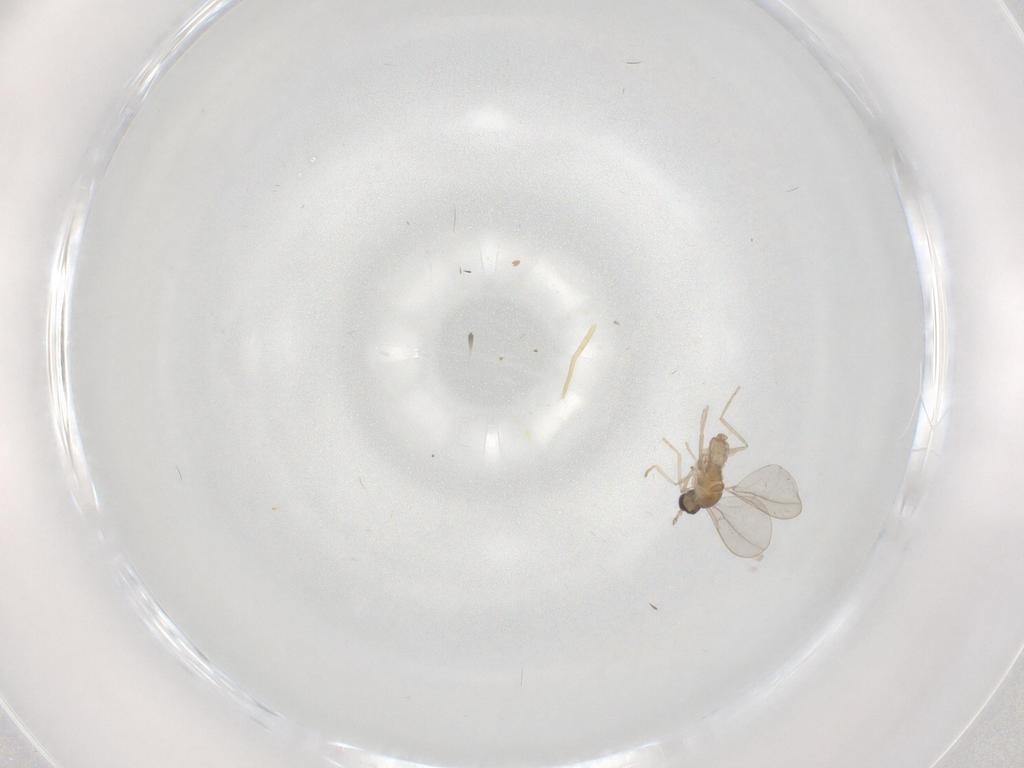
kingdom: Animalia
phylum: Arthropoda
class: Insecta
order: Diptera
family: Cecidomyiidae
